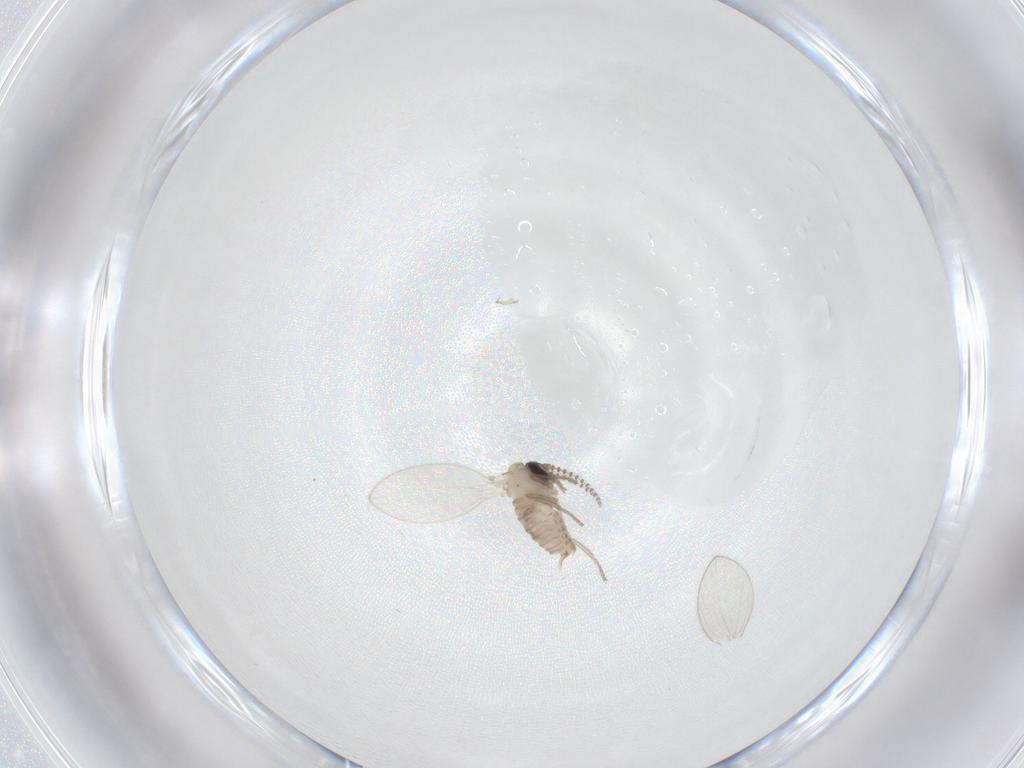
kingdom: Animalia
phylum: Arthropoda
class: Insecta
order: Diptera
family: Psychodidae
